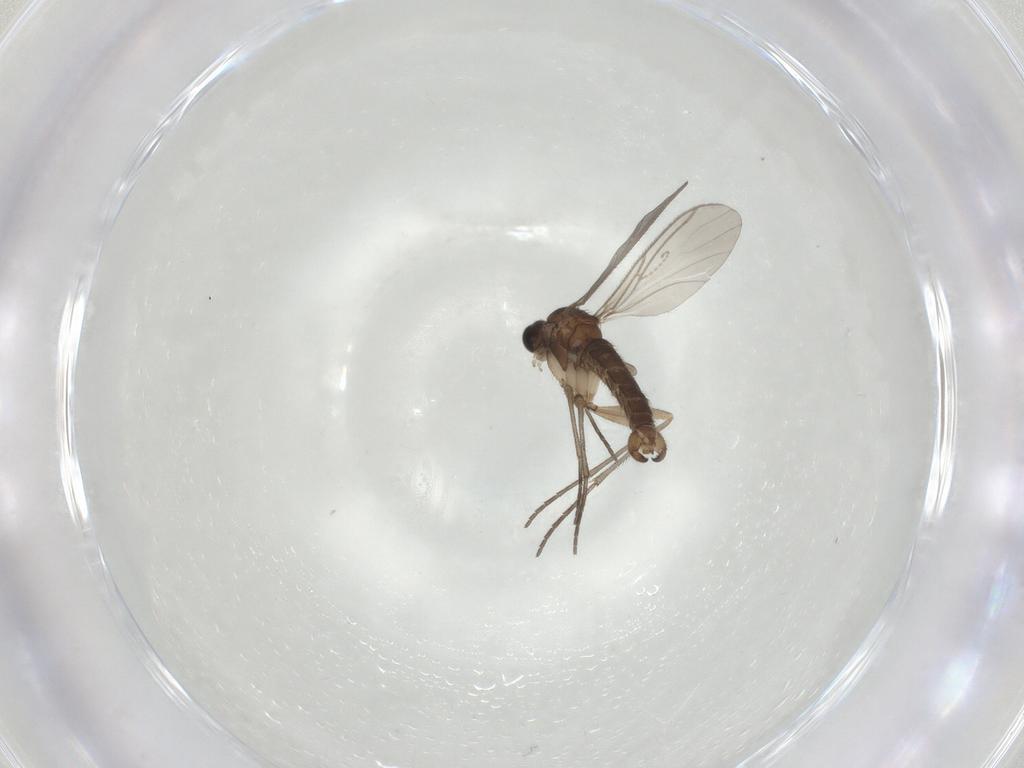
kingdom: Animalia
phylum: Arthropoda
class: Insecta
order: Diptera
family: Sciaridae
